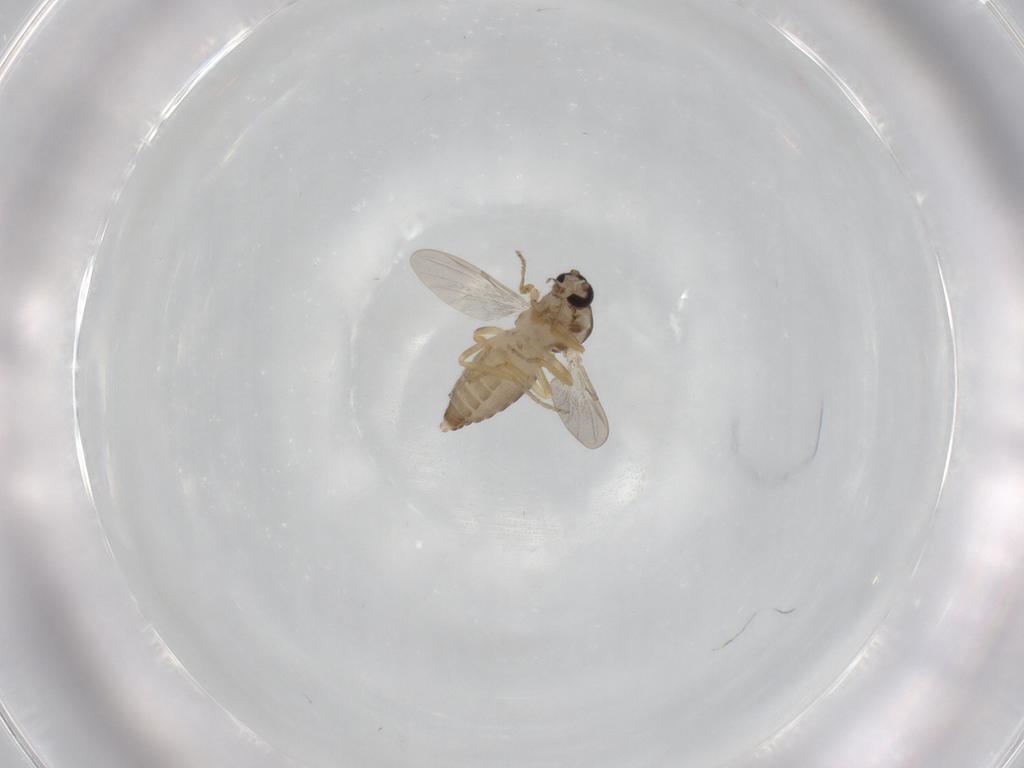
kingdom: Animalia
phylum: Arthropoda
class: Insecta
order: Diptera
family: Ceratopogonidae
